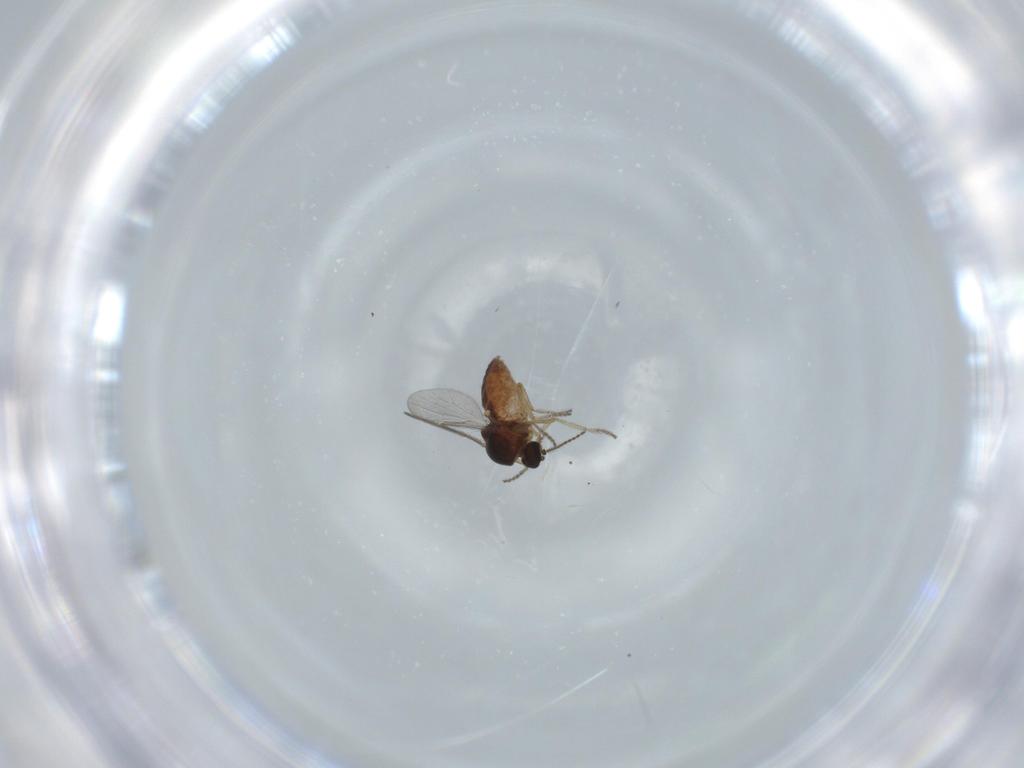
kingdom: Animalia
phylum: Arthropoda
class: Insecta
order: Diptera
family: Ceratopogonidae
